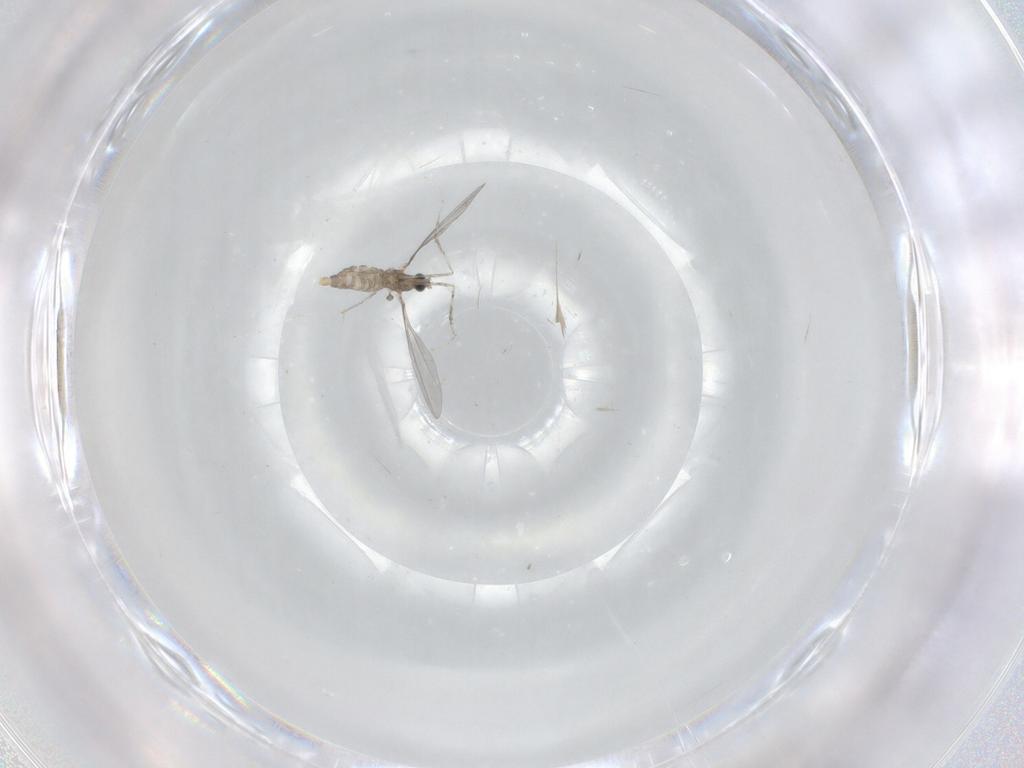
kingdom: Animalia
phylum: Arthropoda
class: Insecta
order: Diptera
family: Cecidomyiidae
